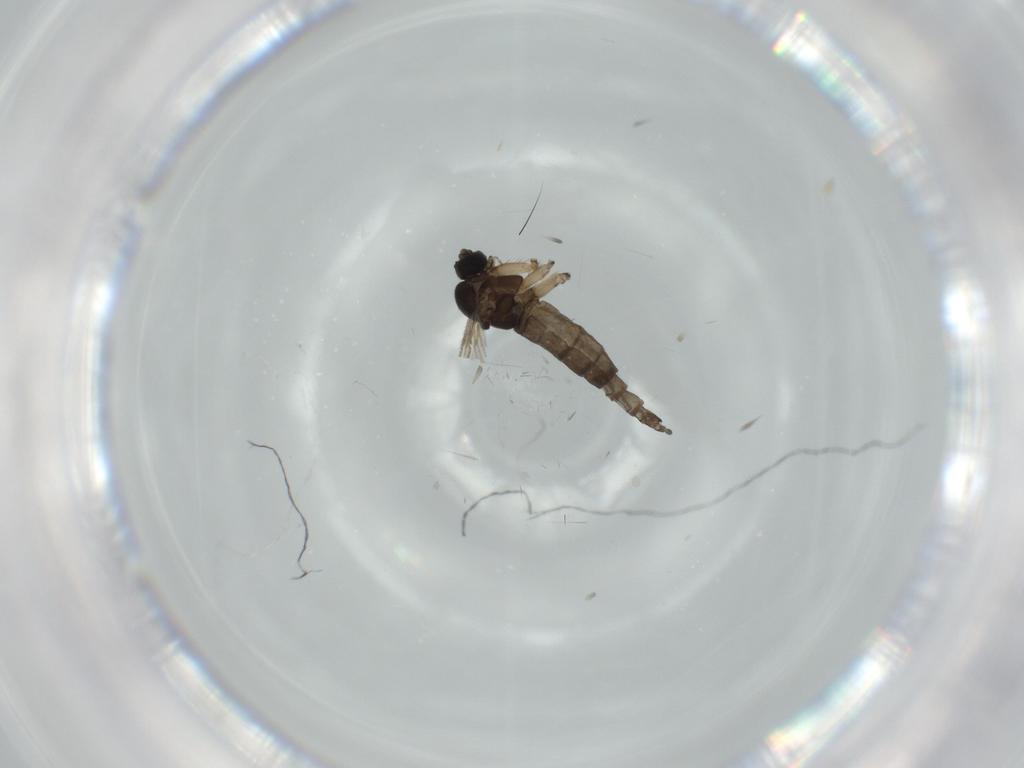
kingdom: Animalia
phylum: Arthropoda
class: Insecta
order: Diptera
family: Sciaridae
